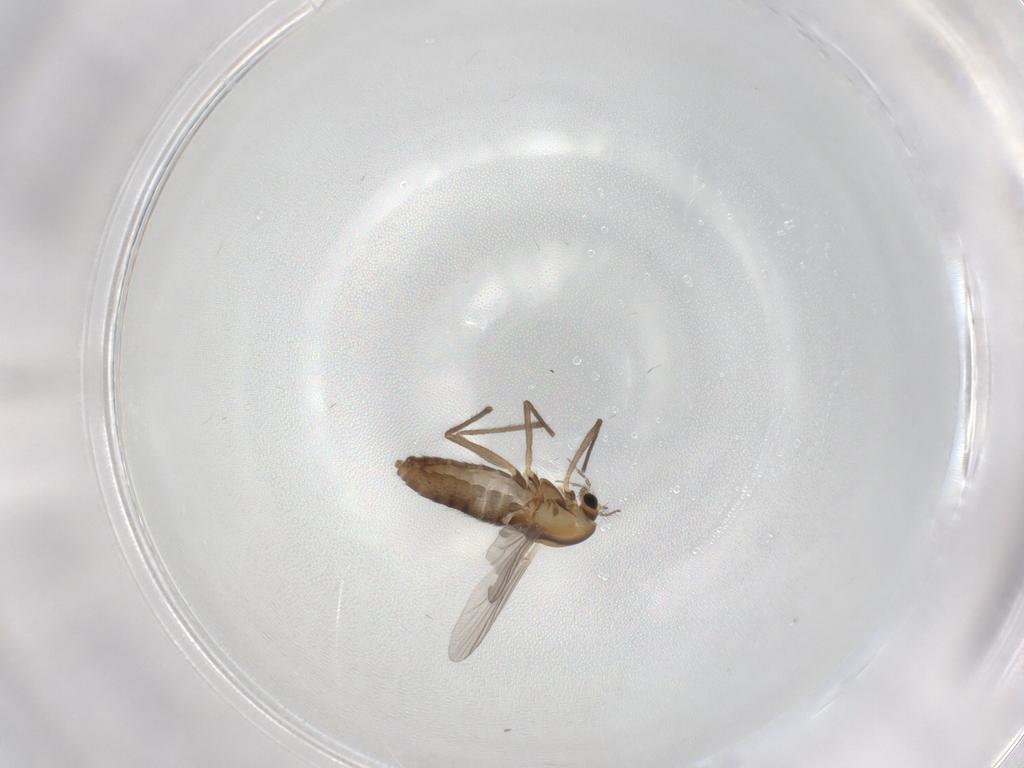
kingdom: Animalia
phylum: Arthropoda
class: Insecta
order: Diptera
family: Chironomidae
